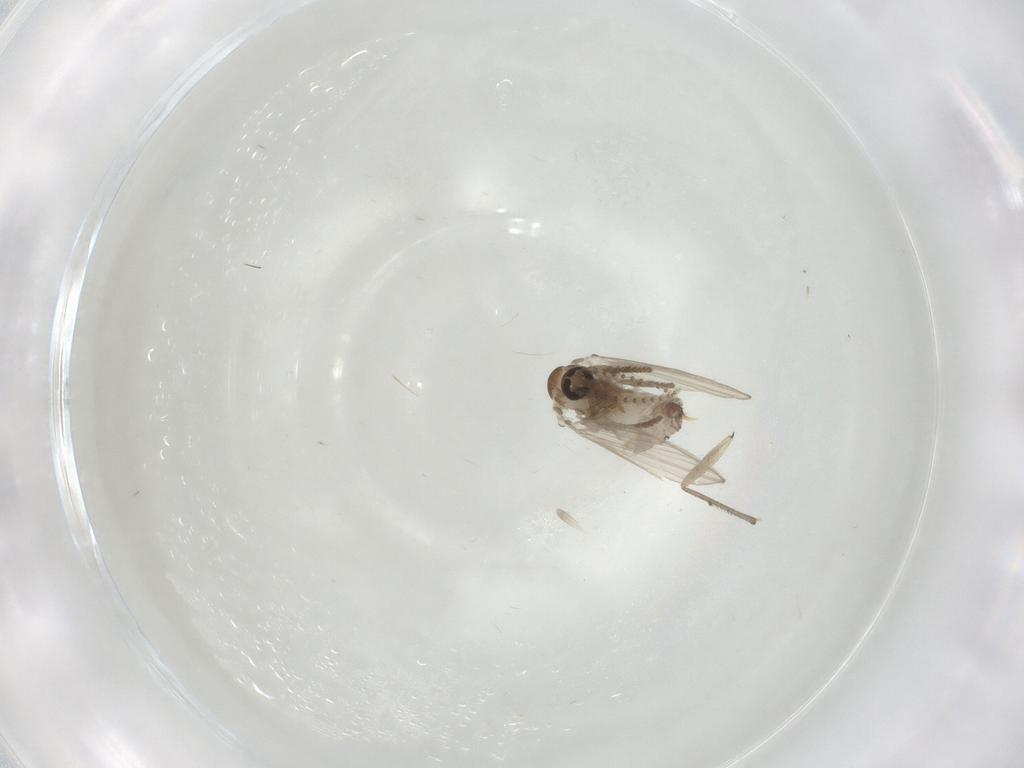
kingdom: Animalia
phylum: Arthropoda
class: Insecta
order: Diptera
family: Psychodidae
